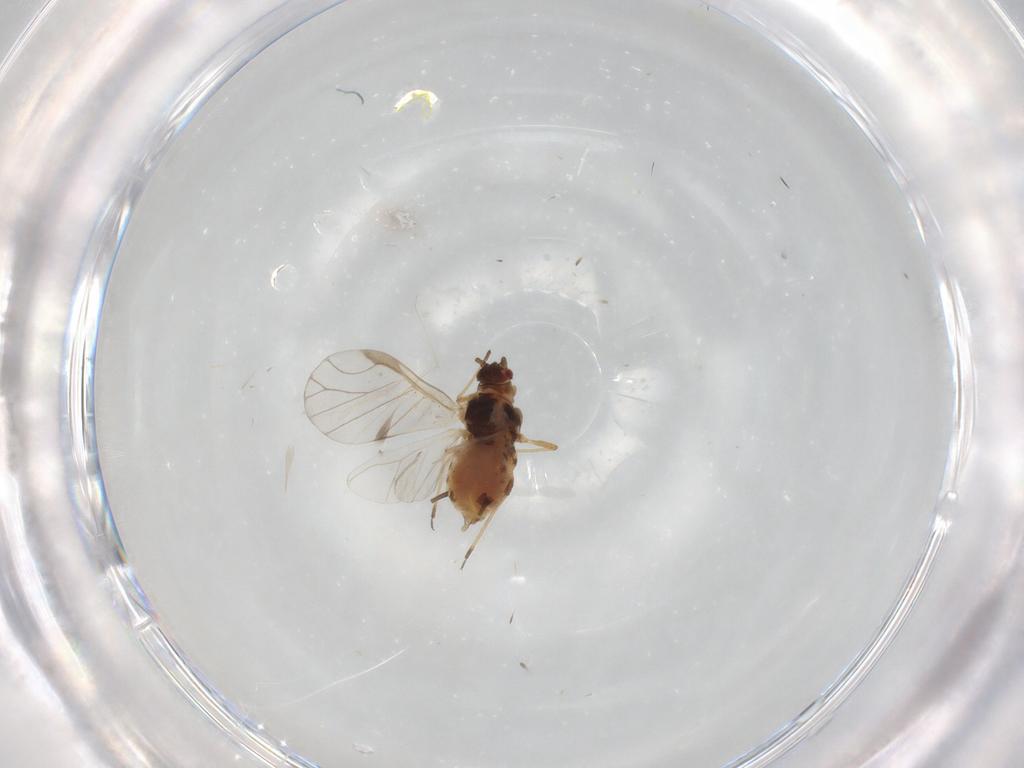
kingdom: Animalia
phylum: Arthropoda
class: Insecta
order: Hemiptera
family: Aphididae
